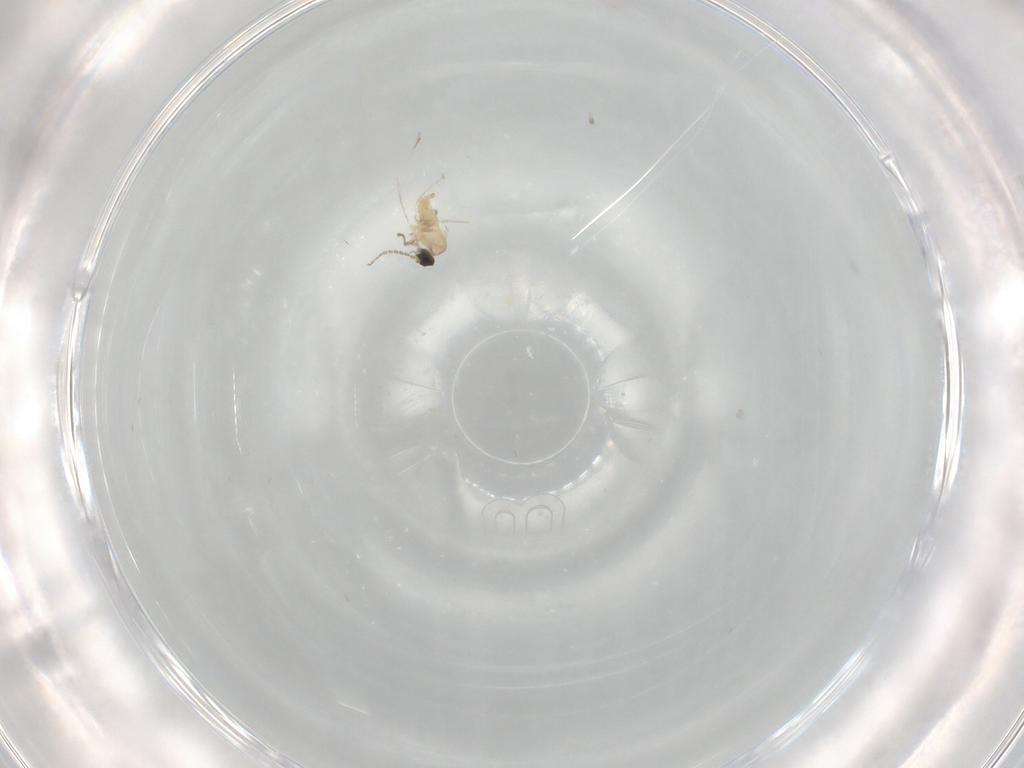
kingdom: Animalia
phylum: Arthropoda
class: Insecta
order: Diptera
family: Cecidomyiidae
